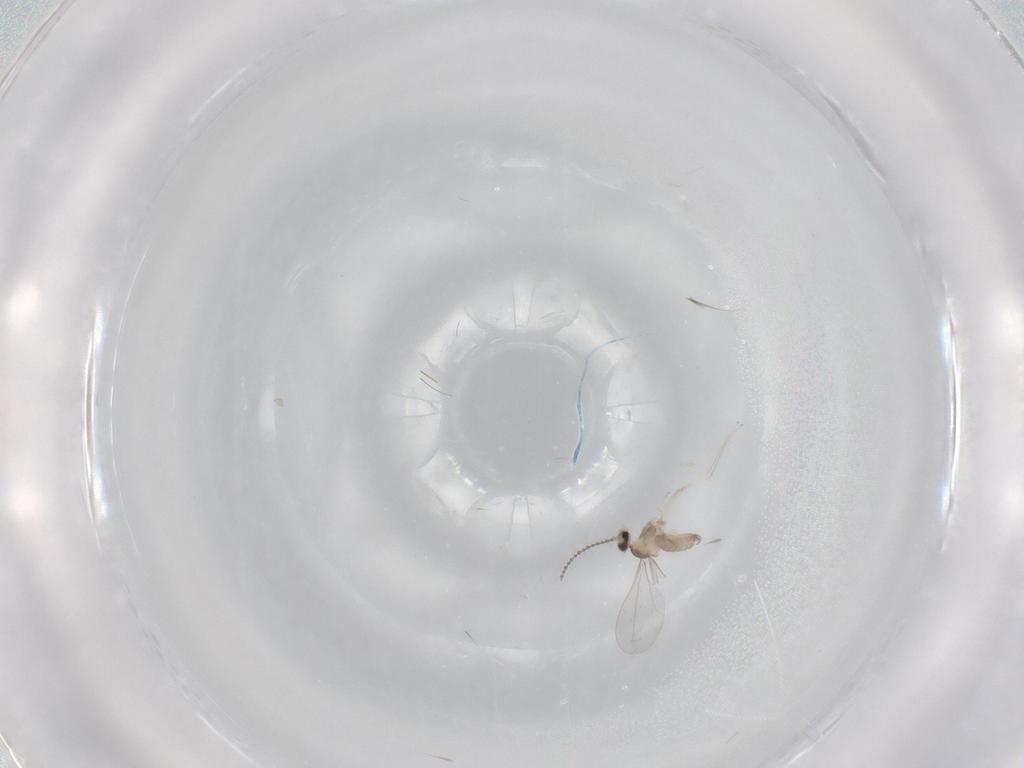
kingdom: Animalia
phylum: Arthropoda
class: Insecta
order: Diptera
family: Cecidomyiidae
